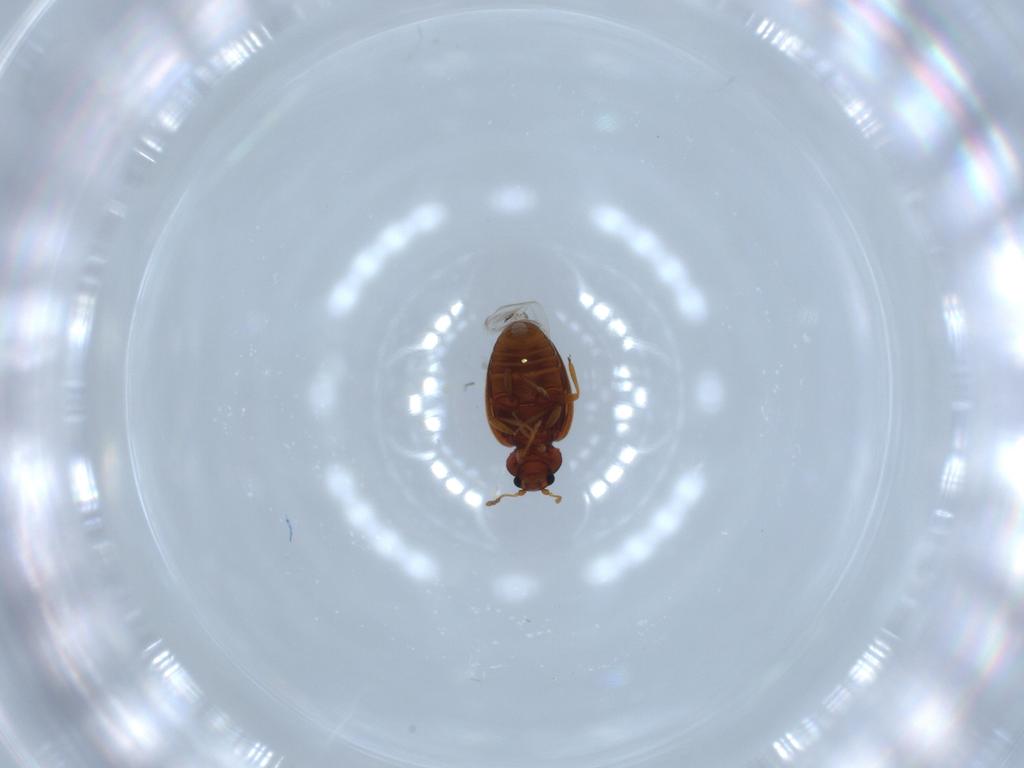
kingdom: Animalia
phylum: Arthropoda
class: Insecta
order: Coleoptera
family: Latridiidae
